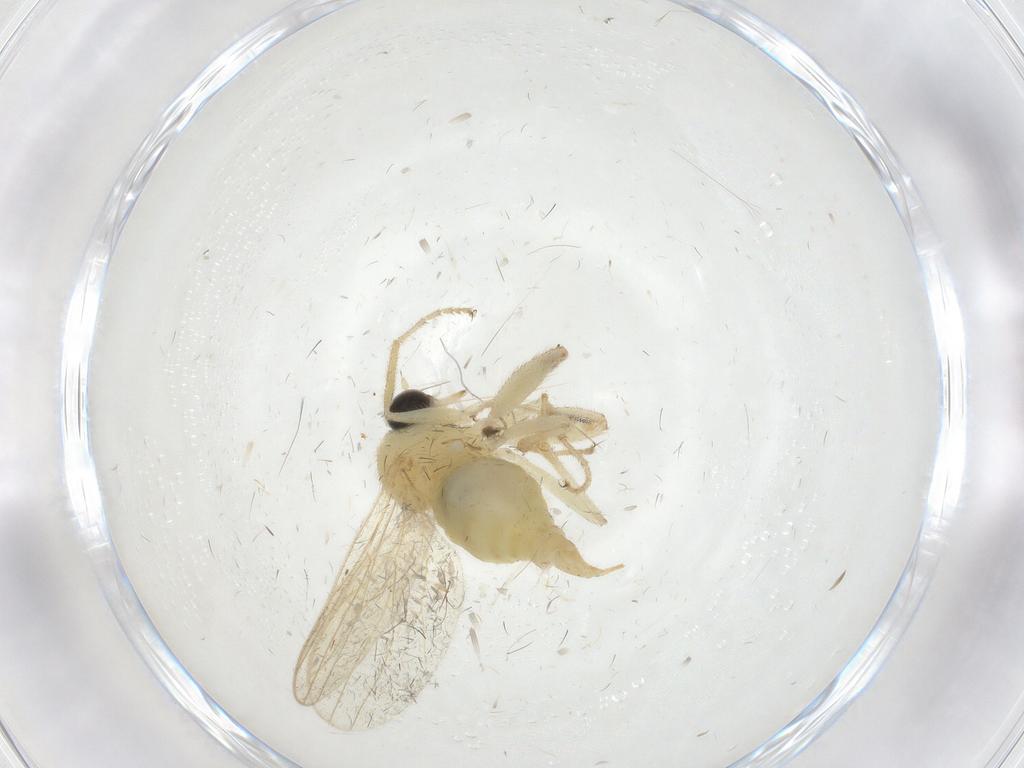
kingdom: Animalia
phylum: Arthropoda
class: Insecta
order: Diptera
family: Hybotidae
